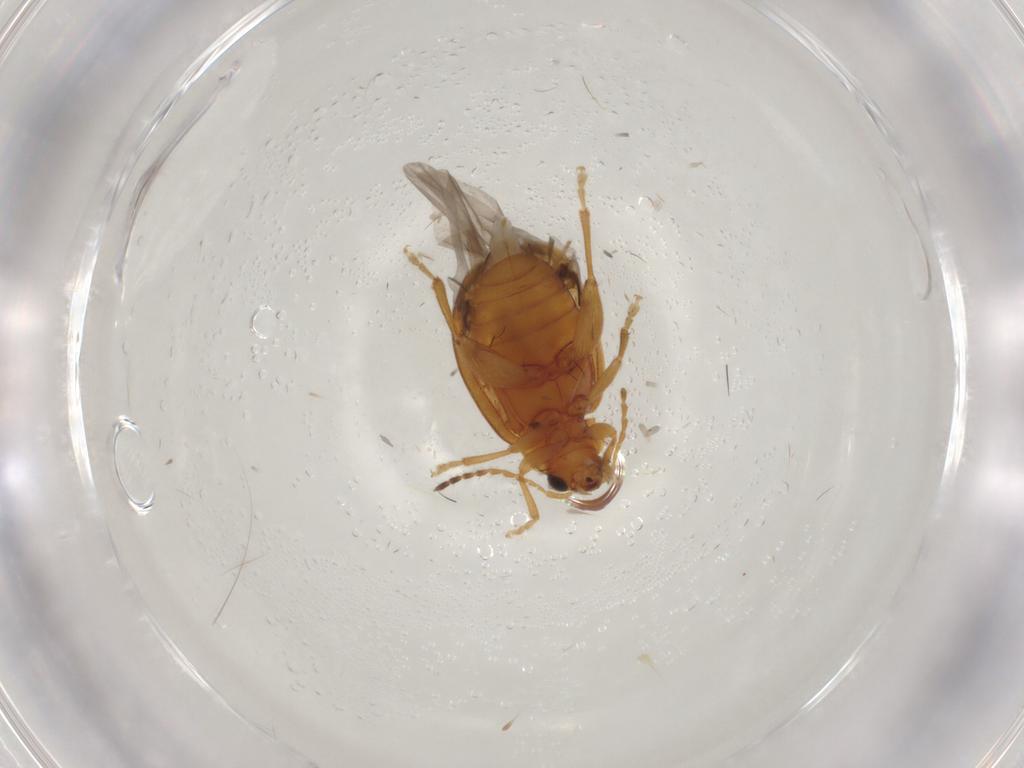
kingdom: Animalia
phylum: Arthropoda
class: Insecta
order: Coleoptera
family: Chrysomelidae
